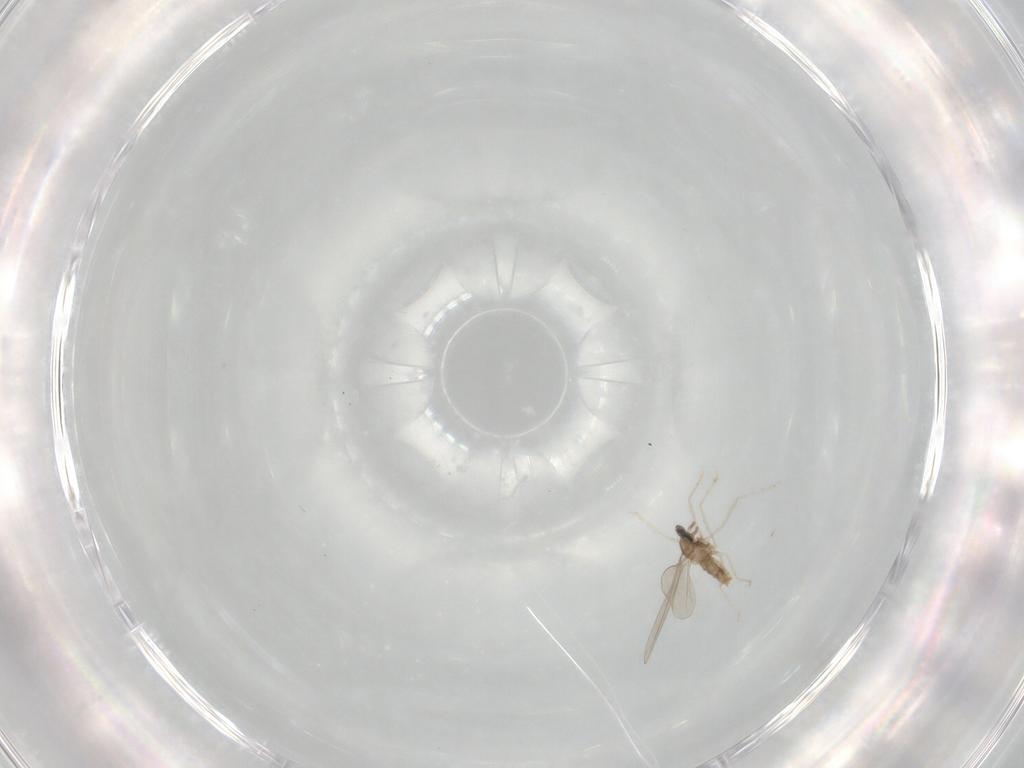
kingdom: Animalia
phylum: Arthropoda
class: Insecta
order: Diptera
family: Cecidomyiidae
